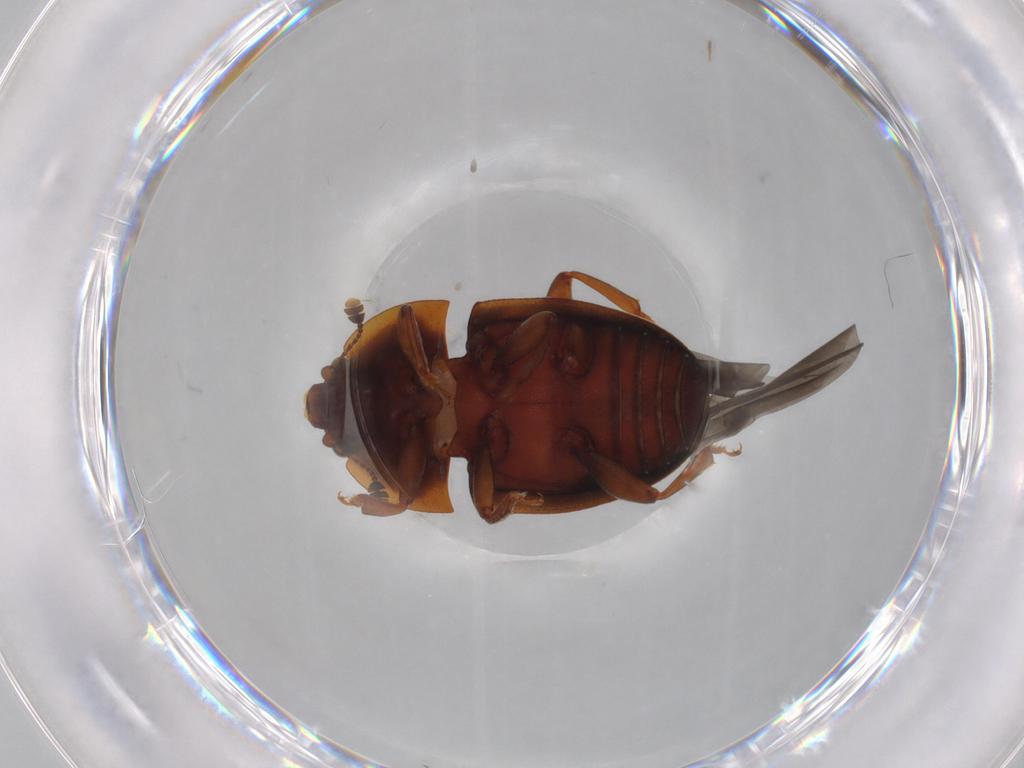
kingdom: Animalia
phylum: Arthropoda
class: Insecta
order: Coleoptera
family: Nitidulidae
